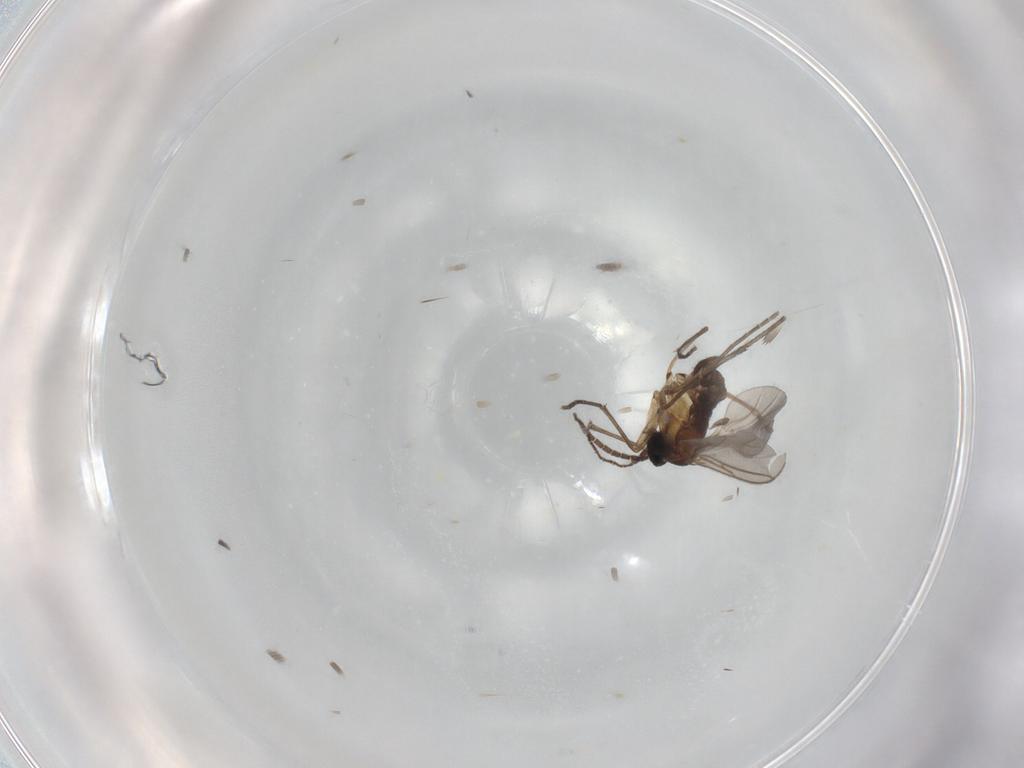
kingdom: Animalia
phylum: Arthropoda
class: Insecta
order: Diptera
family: Sciaridae
